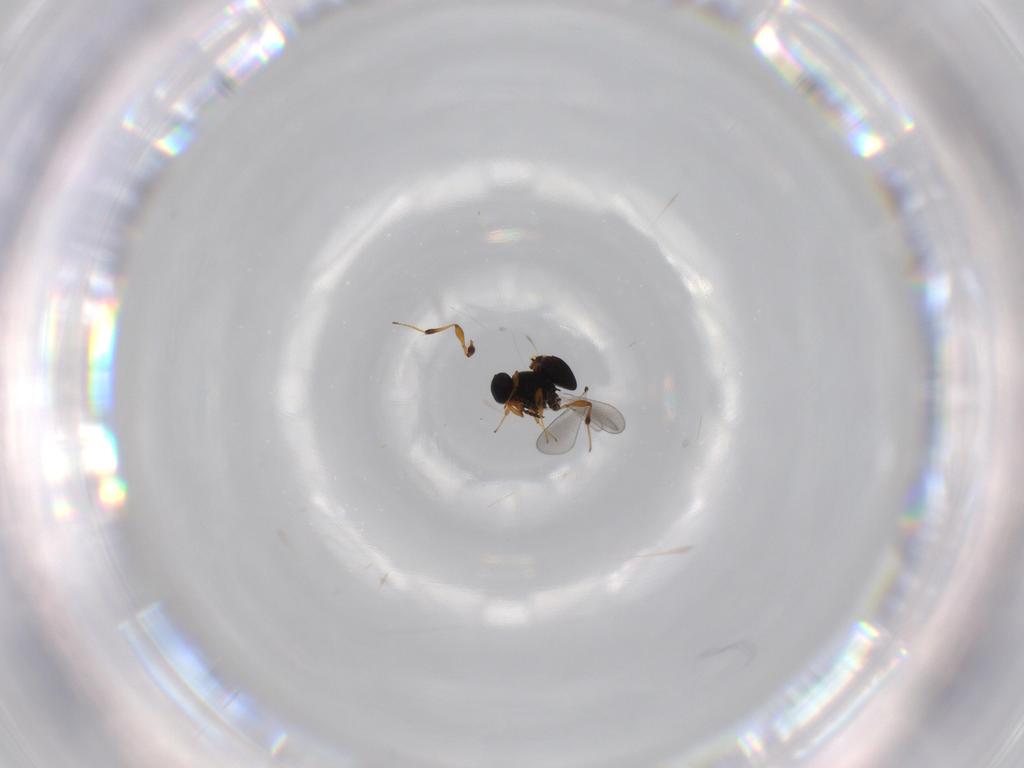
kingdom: Animalia
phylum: Arthropoda
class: Insecta
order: Hymenoptera
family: Platygastridae
